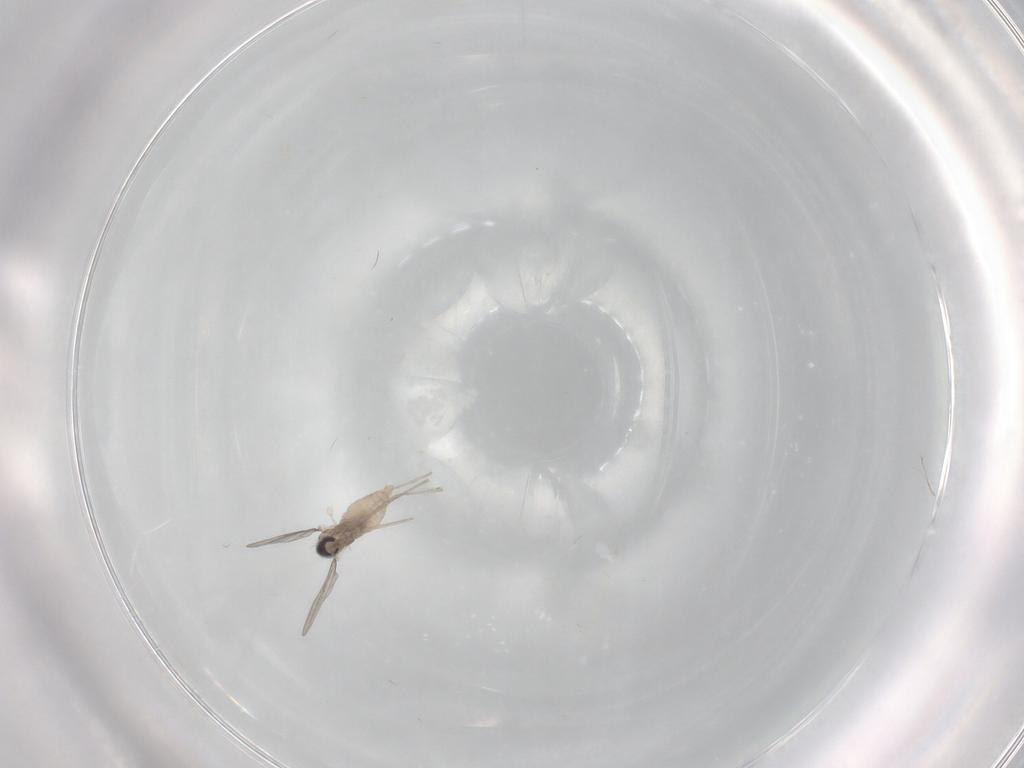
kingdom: Animalia
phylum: Arthropoda
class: Insecta
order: Diptera
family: Cecidomyiidae
